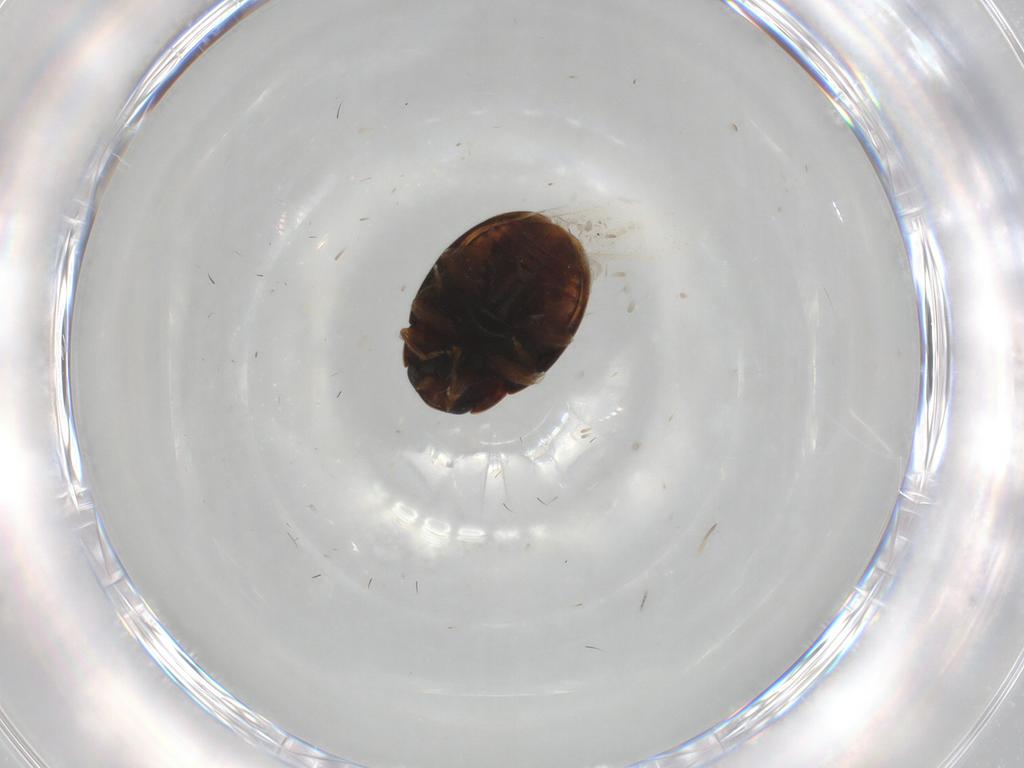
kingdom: Animalia
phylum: Arthropoda
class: Insecta
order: Coleoptera
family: Coccinellidae
